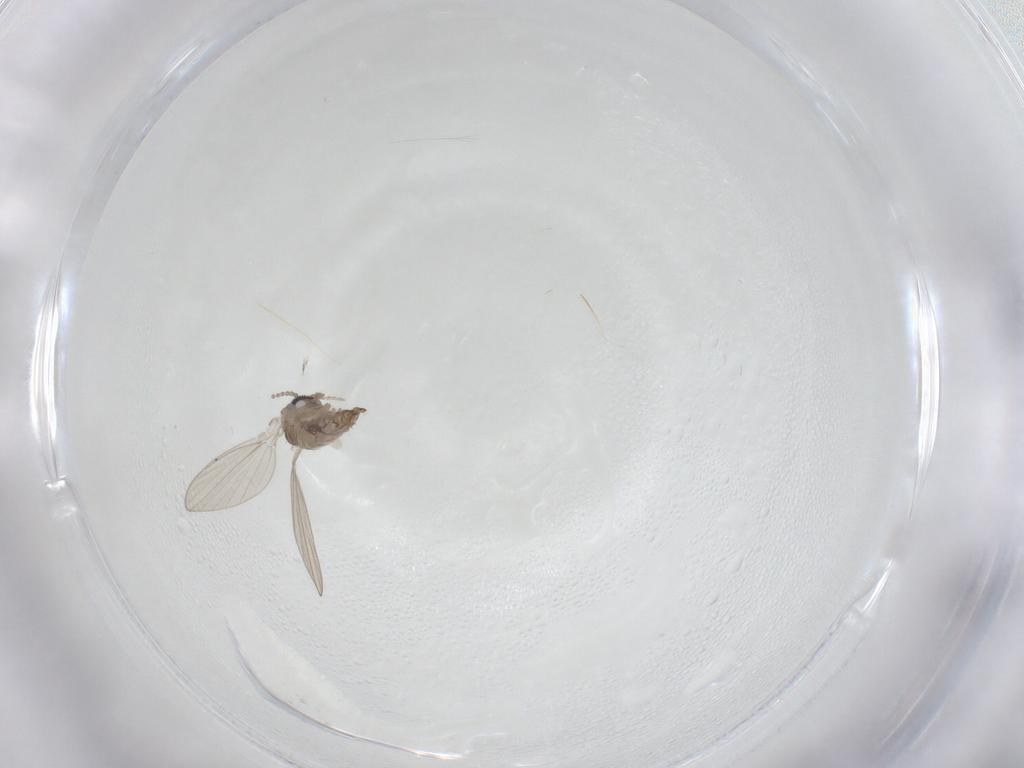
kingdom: Animalia
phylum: Arthropoda
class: Insecta
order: Diptera
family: Psychodidae
